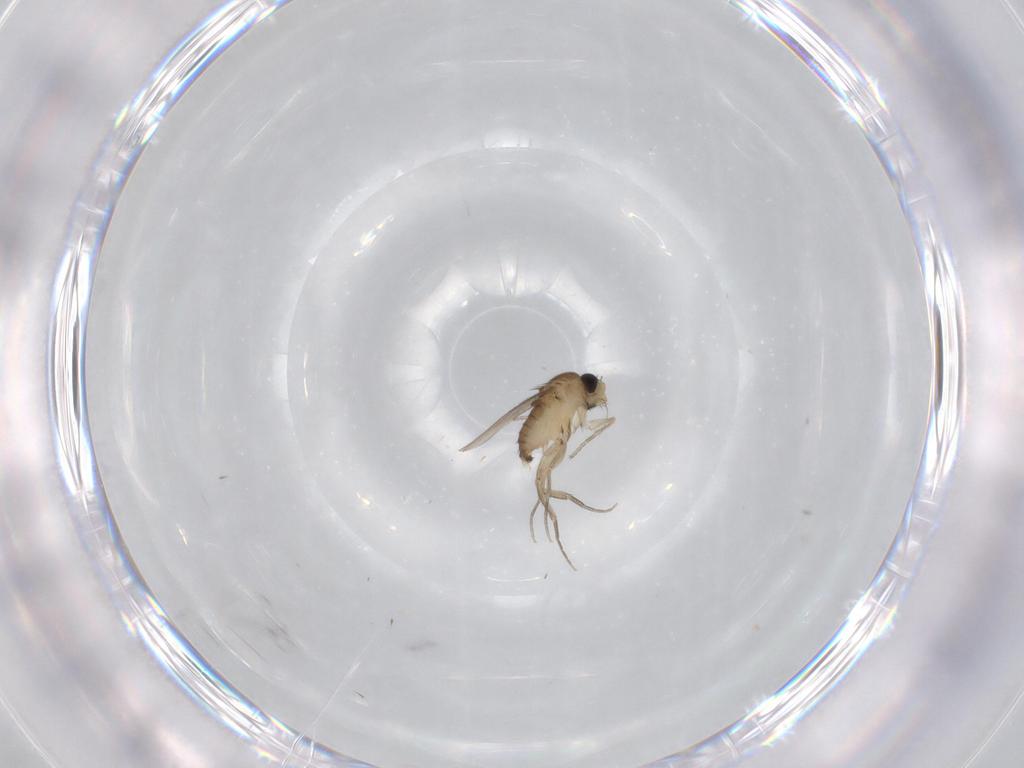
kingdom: Animalia
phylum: Arthropoda
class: Insecta
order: Diptera
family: Phoridae
